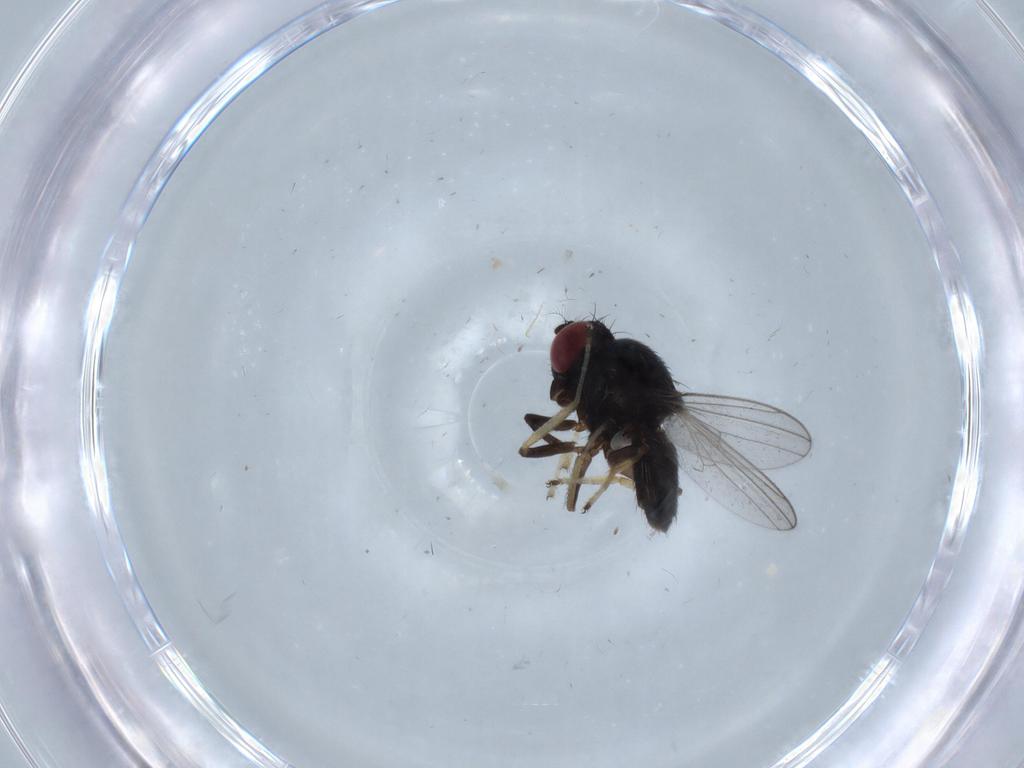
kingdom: Animalia
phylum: Arthropoda
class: Insecta
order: Diptera
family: Ephydridae
